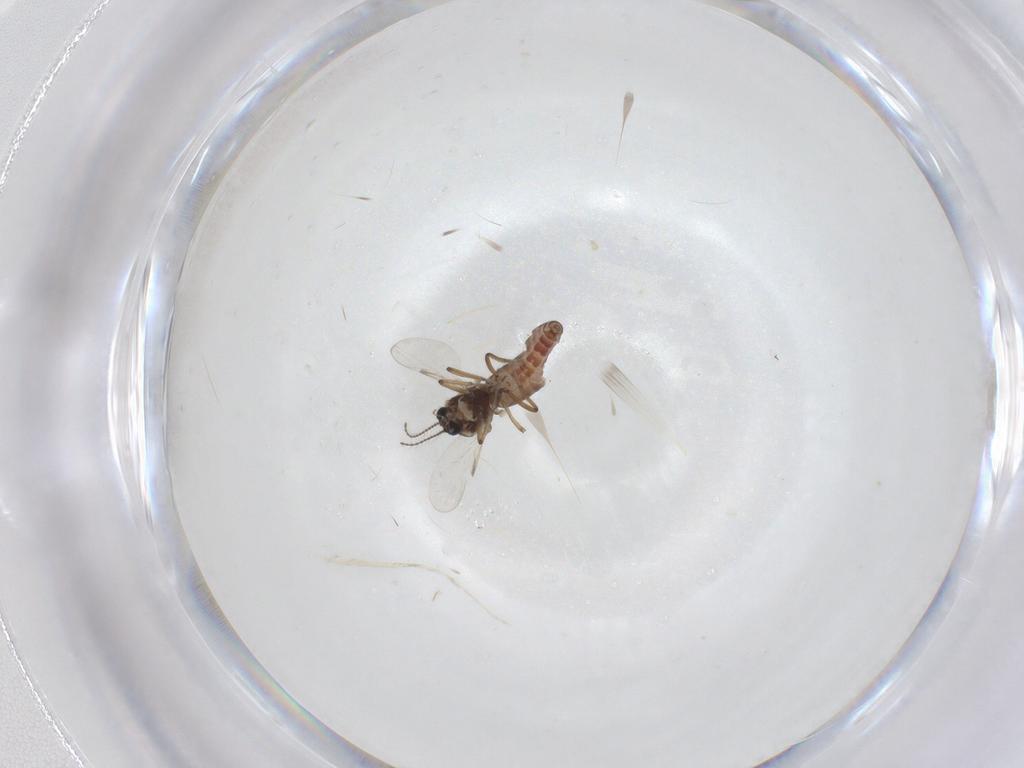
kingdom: Animalia
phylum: Arthropoda
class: Insecta
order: Diptera
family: Ceratopogonidae
